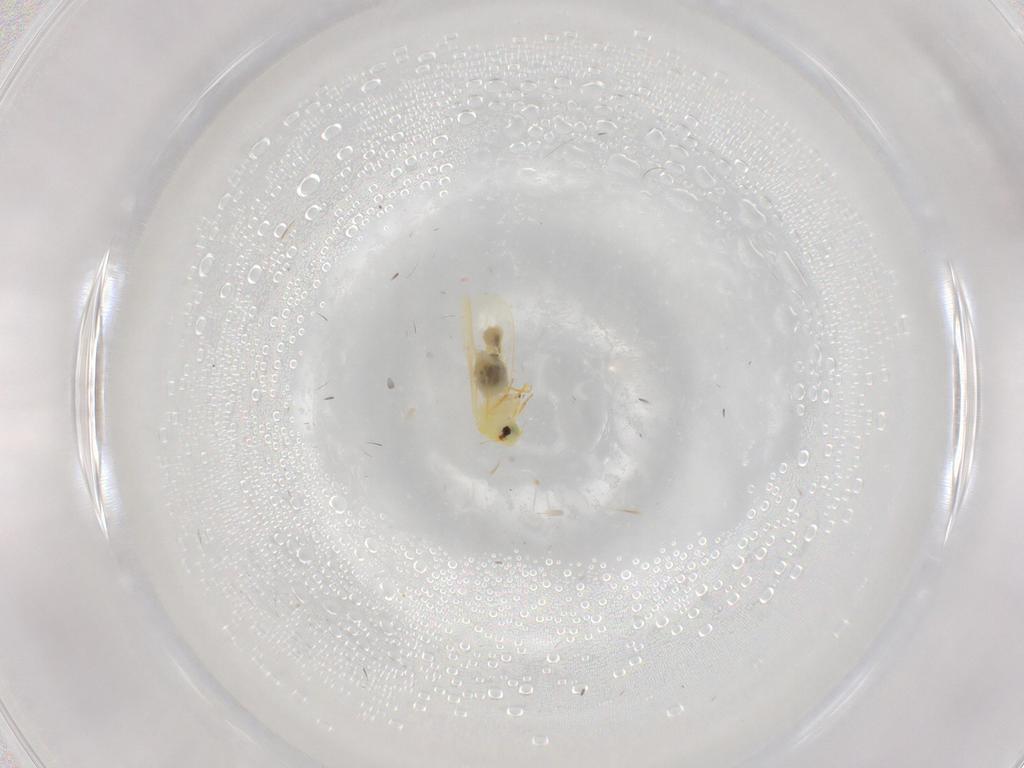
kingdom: Animalia
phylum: Arthropoda
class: Insecta
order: Hemiptera
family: Aleyrodidae
